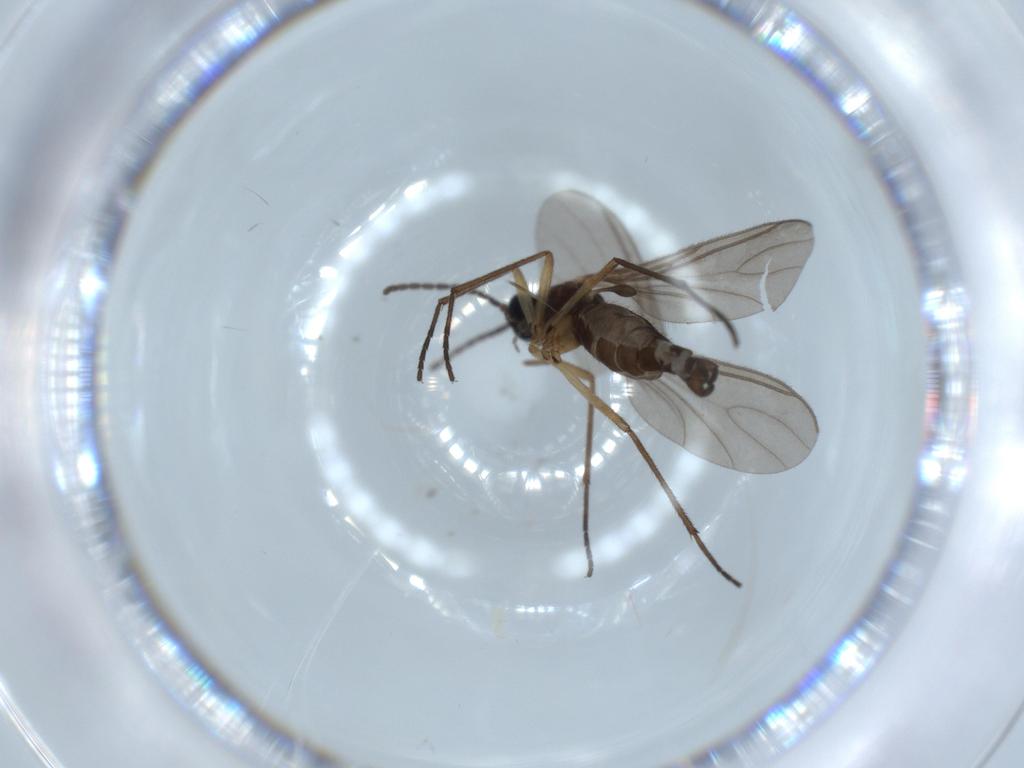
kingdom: Animalia
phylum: Arthropoda
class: Insecta
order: Diptera
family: Sciaridae
